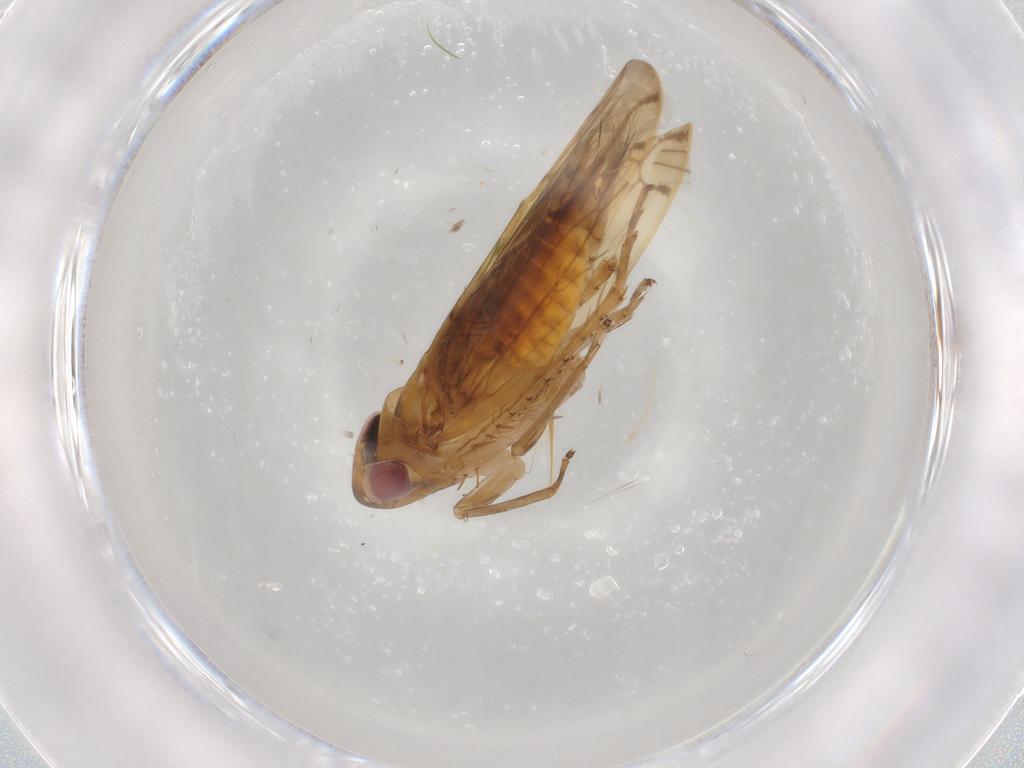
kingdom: Animalia
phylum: Arthropoda
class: Insecta
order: Hemiptera
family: Cicadellidae
